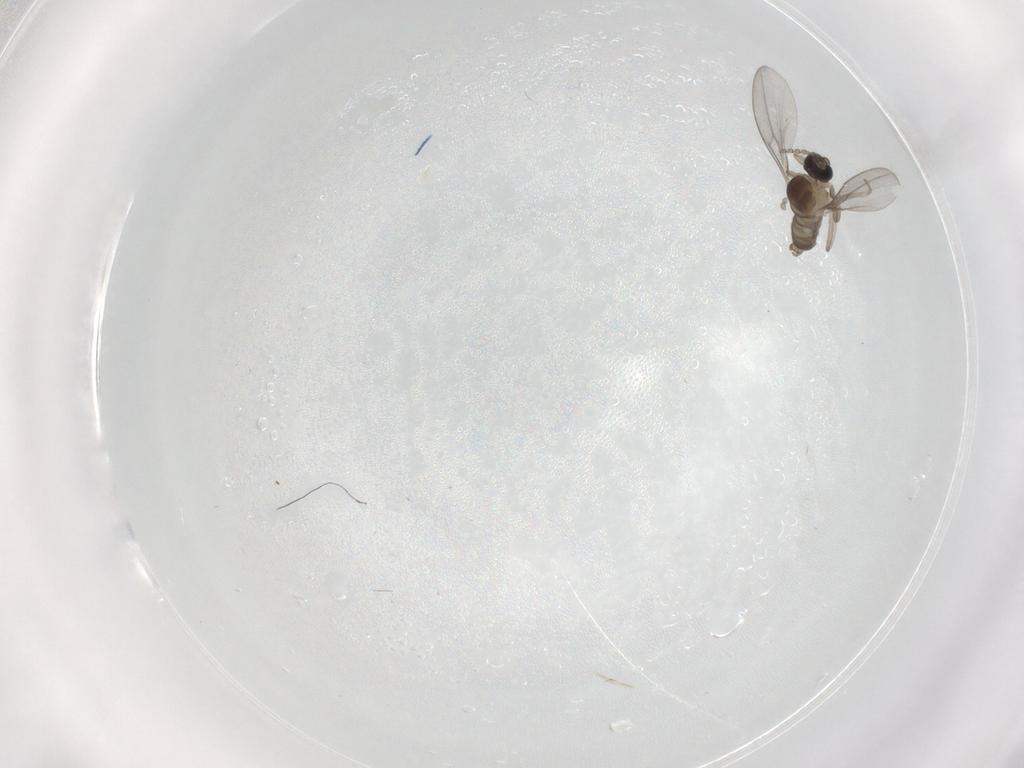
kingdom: Animalia
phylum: Arthropoda
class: Insecta
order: Diptera
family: Cecidomyiidae
